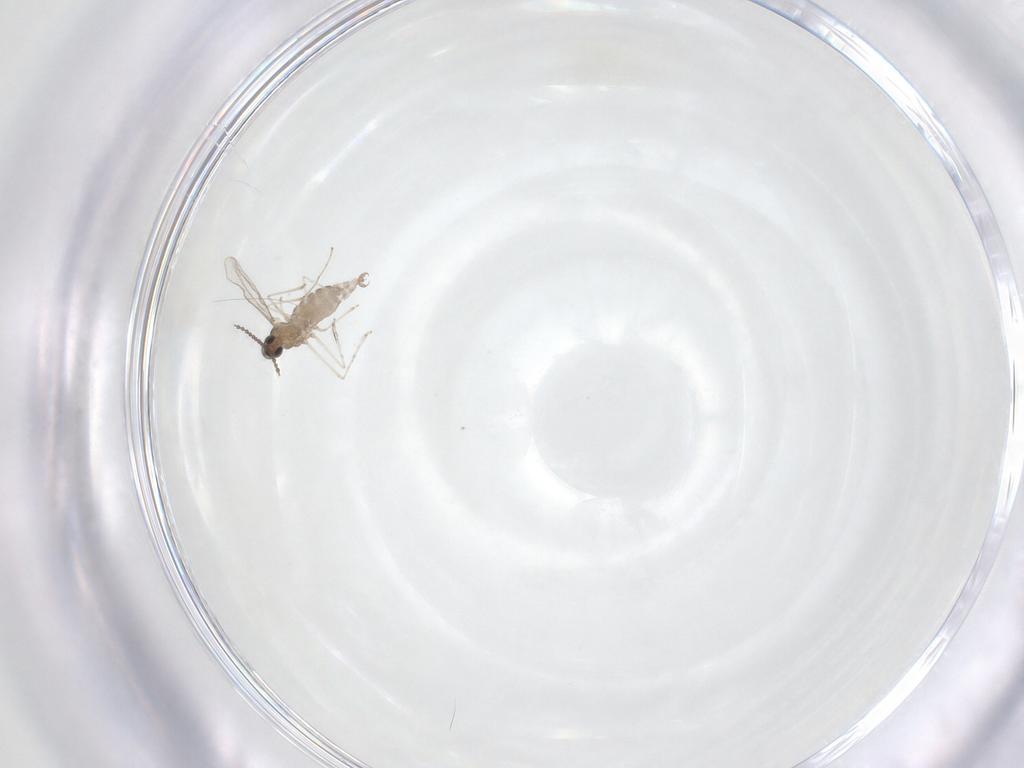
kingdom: Animalia
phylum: Arthropoda
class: Insecta
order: Diptera
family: Cecidomyiidae
